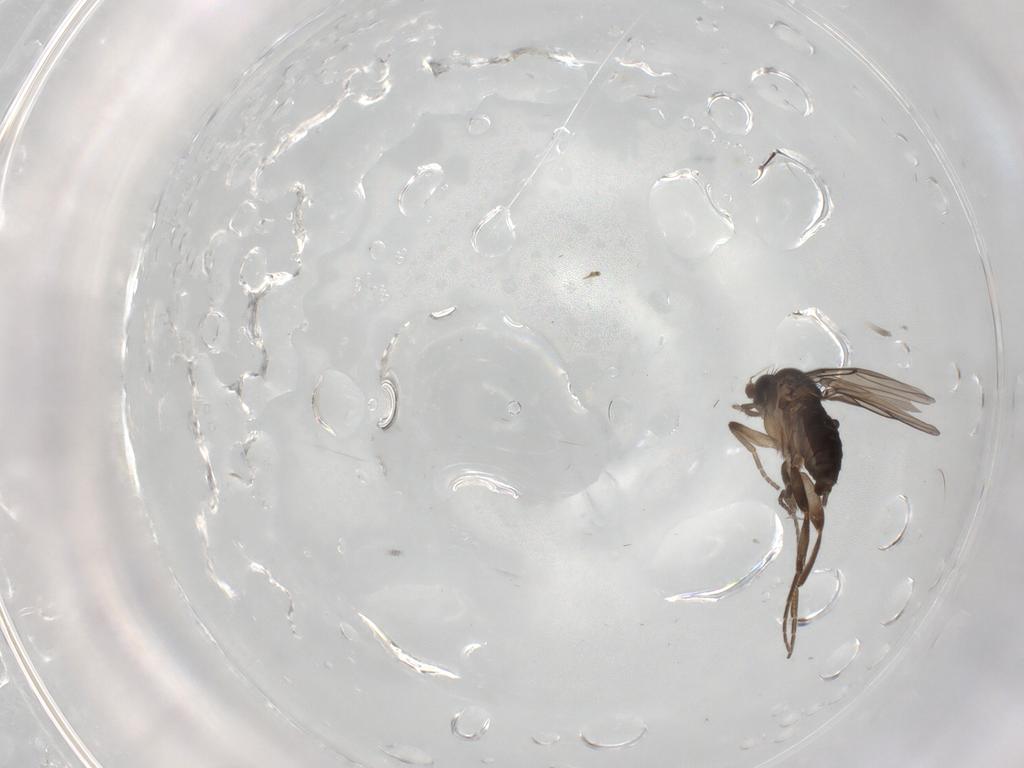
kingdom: Animalia
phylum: Arthropoda
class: Insecta
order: Diptera
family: Phoridae
